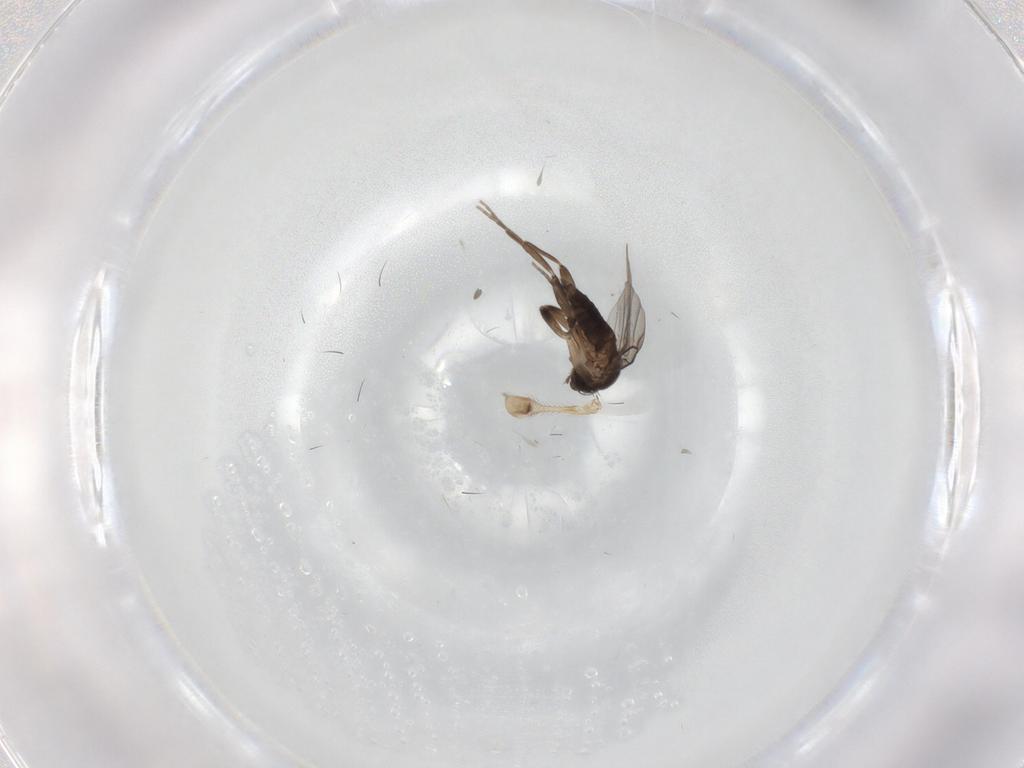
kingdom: Animalia
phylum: Arthropoda
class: Insecta
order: Diptera
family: Limoniidae
